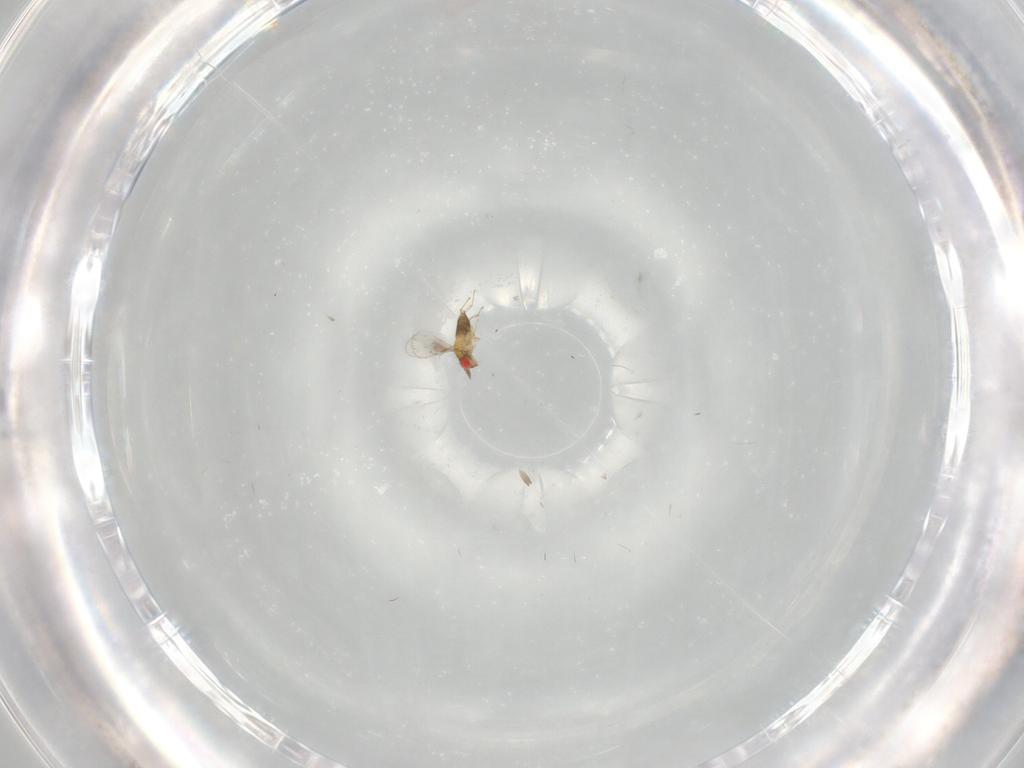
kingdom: Animalia
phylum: Arthropoda
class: Insecta
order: Hymenoptera
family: Trichogrammatidae
